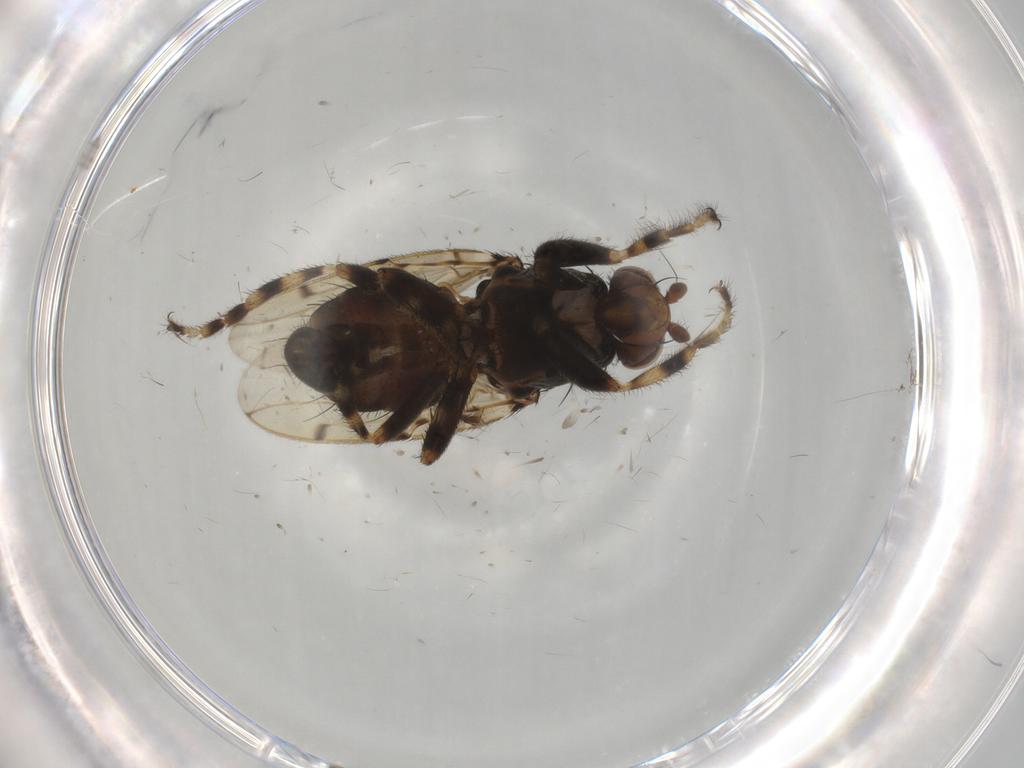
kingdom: Animalia
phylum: Arthropoda
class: Insecta
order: Diptera
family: Sphaeroceridae
